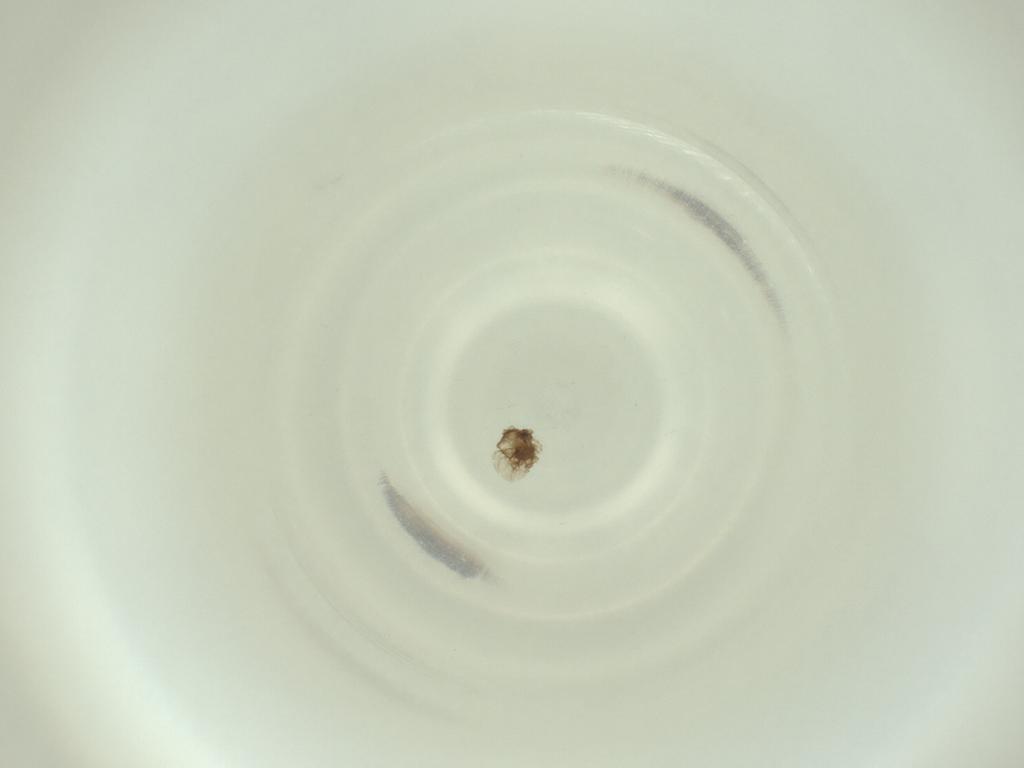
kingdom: Animalia
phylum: Arthropoda
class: Insecta
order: Diptera
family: Cecidomyiidae
